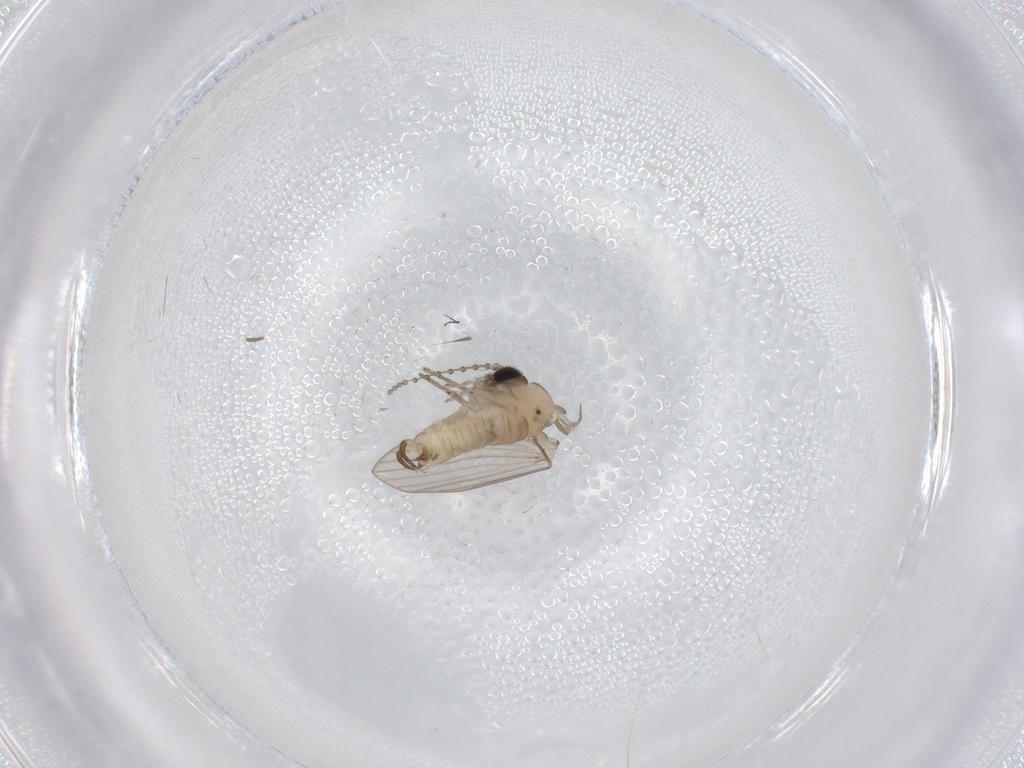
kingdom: Animalia
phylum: Arthropoda
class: Insecta
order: Diptera
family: Psychodidae
